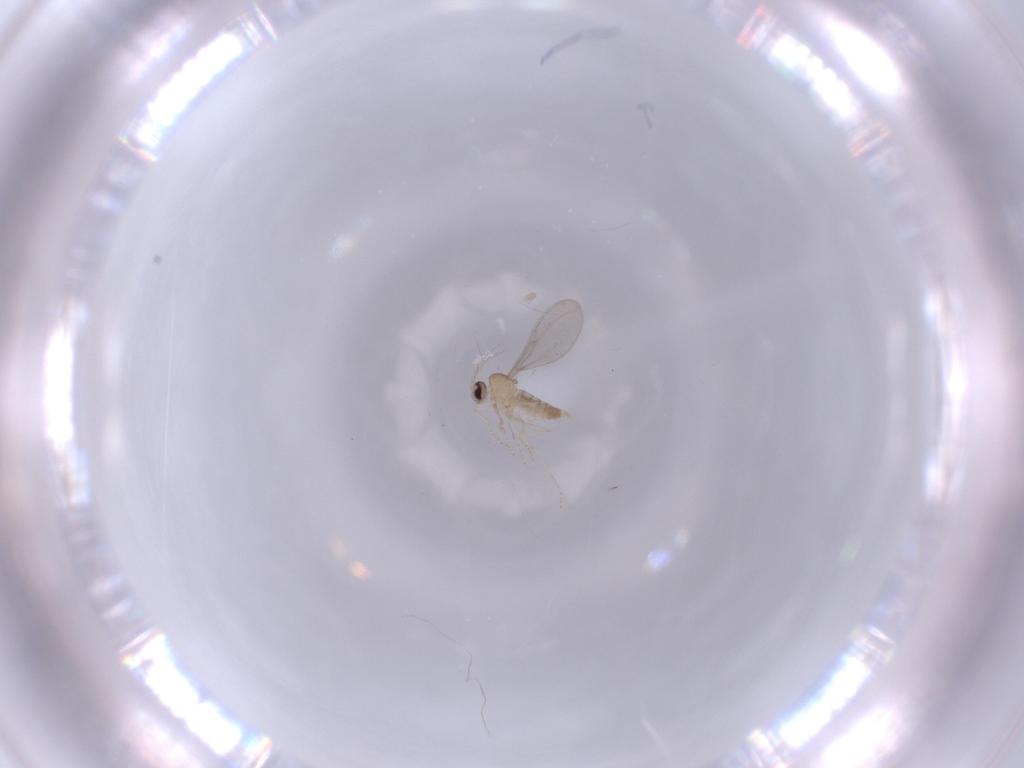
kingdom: Animalia
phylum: Arthropoda
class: Insecta
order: Diptera
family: Cecidomyiidae
